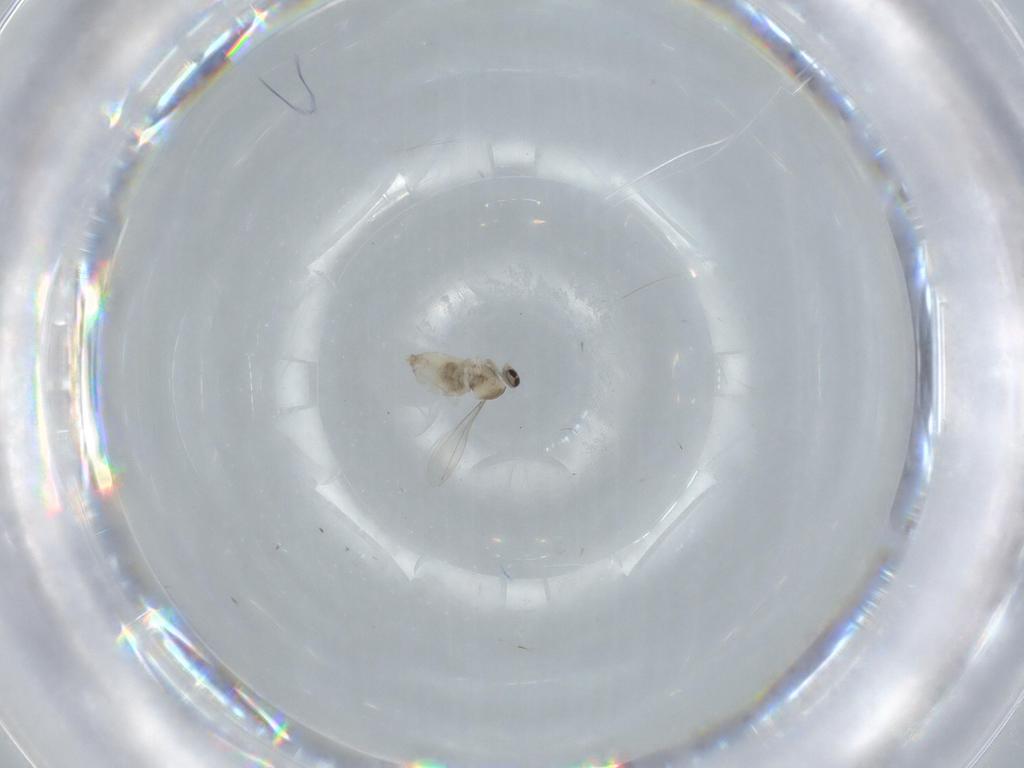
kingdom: Animalia
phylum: Arthropoda
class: Insecta
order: Diptera
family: Cecidomyiidae
